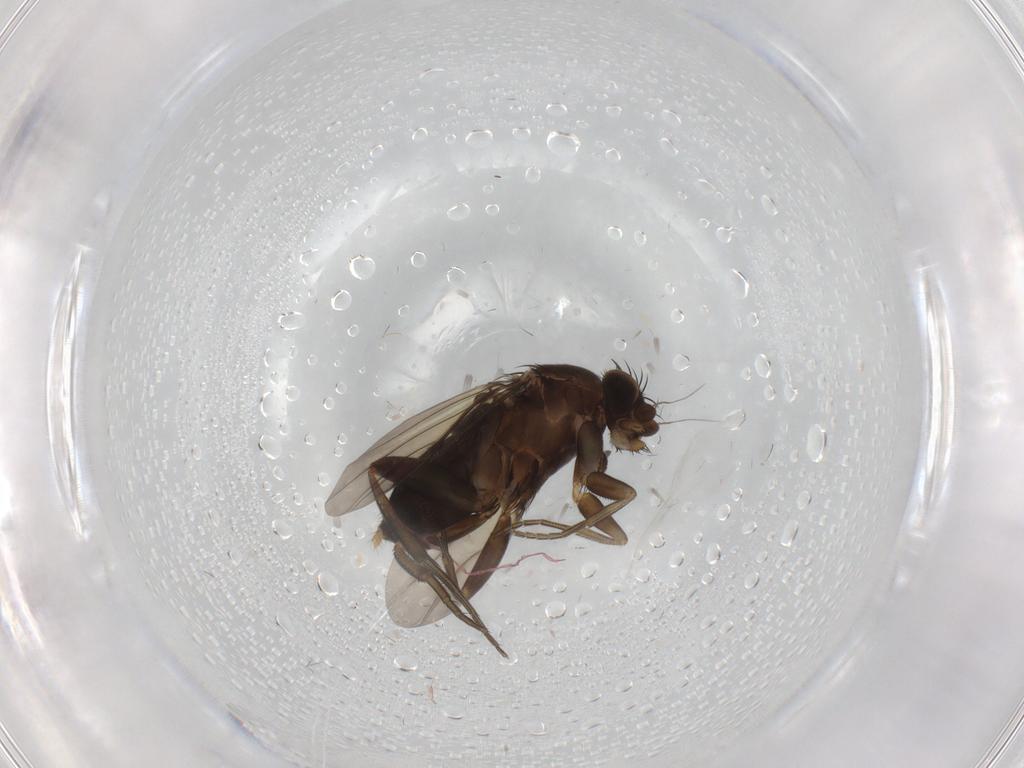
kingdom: Animalia
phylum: Arthropoda
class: Insecta
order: Diptera
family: Phoridae
